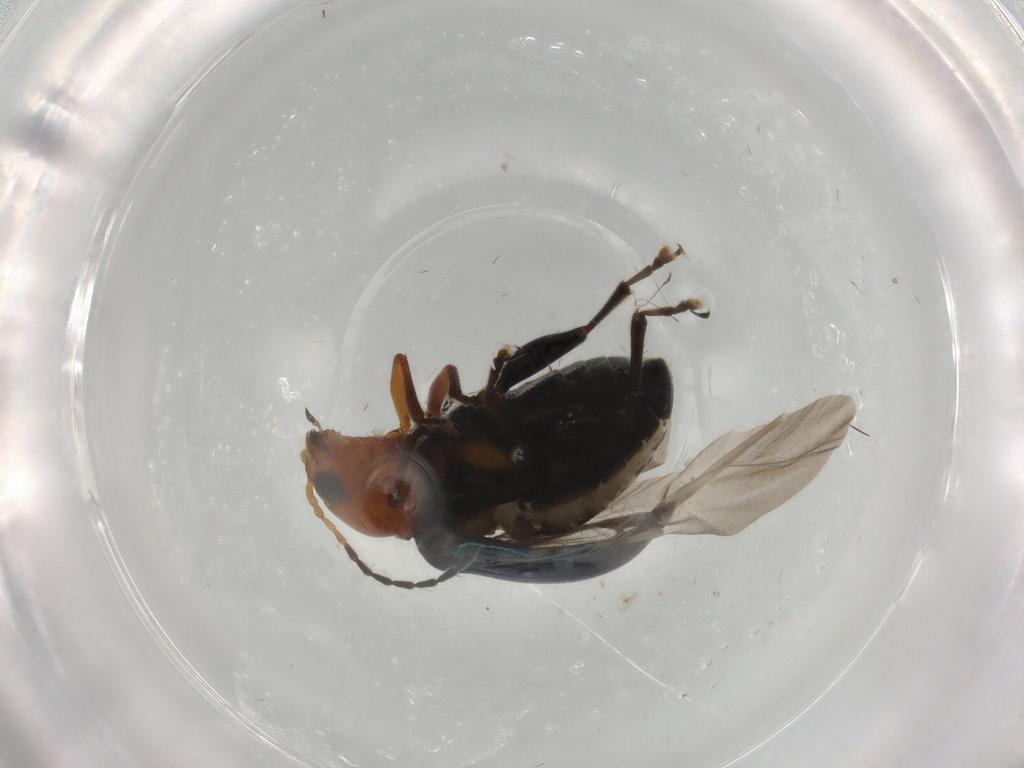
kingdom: Animalia
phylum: Arthropoda
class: Insecta
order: Coleoptera
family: Chrysomelidae
